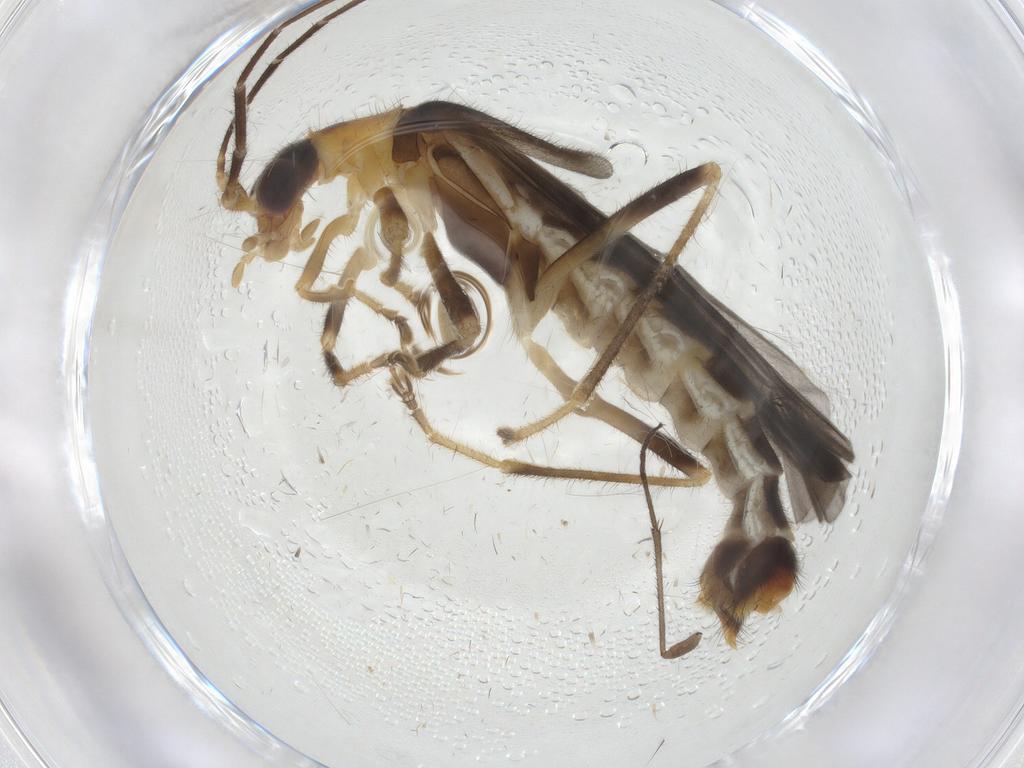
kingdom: Animalia
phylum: Arthropoda
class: Insecta
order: Coleoptera
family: Cantharidae
